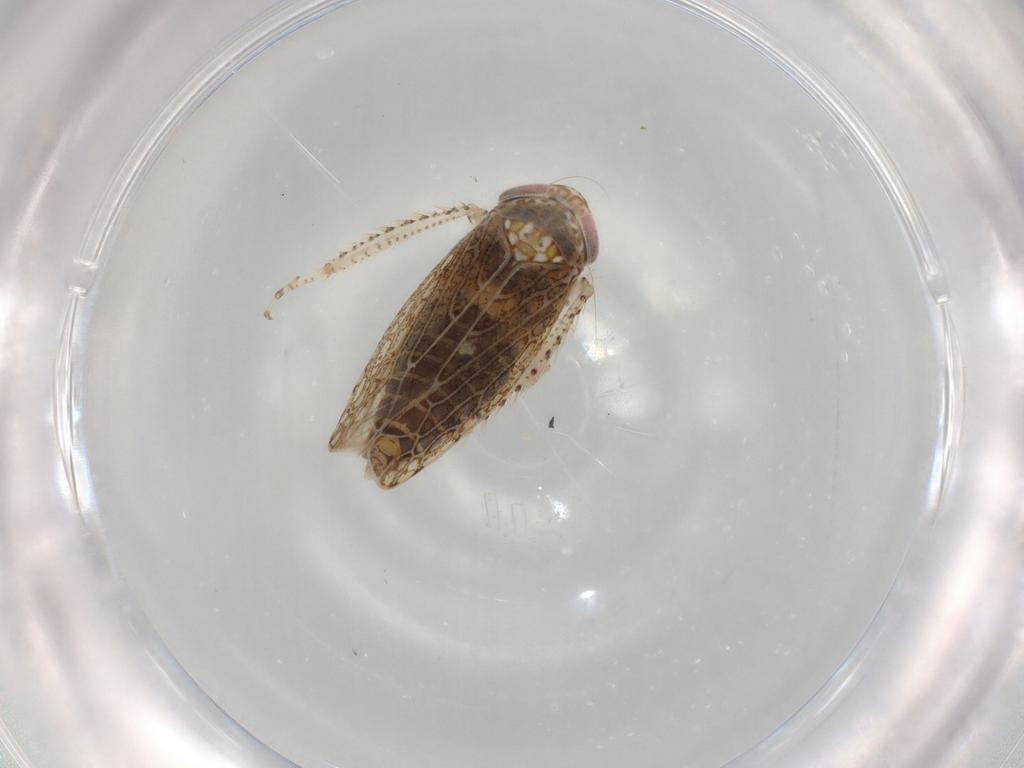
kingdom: Animalia
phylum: Arthropoda
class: Insecta
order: Hemiptera
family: Cicadellidae
